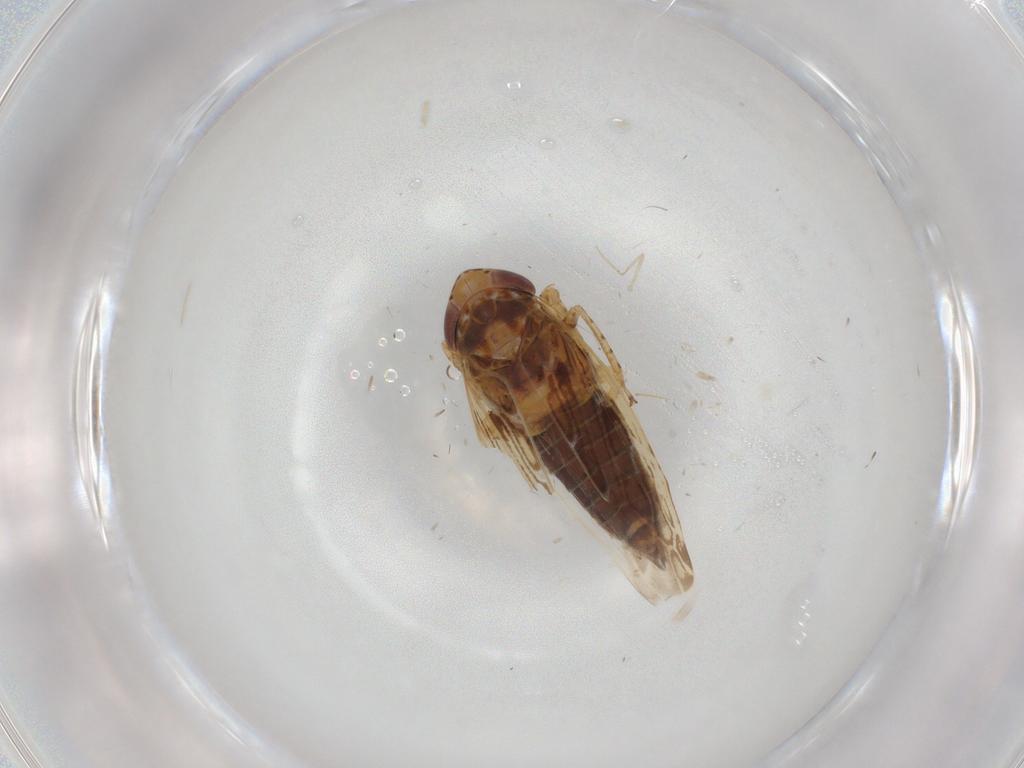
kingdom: Animalia
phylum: Arthropoda
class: Insecta
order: Hemiptera
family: Cicadellidae
